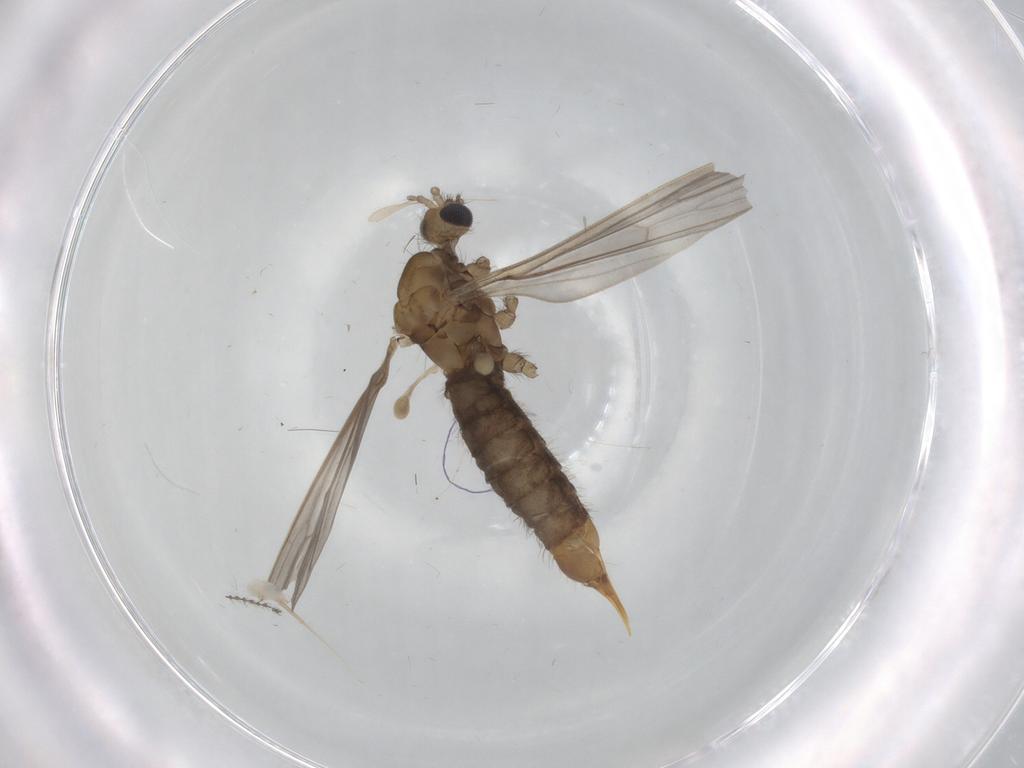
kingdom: Animalia
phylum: Arthropoda
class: Insecta
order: Diptera
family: Limoniidae
